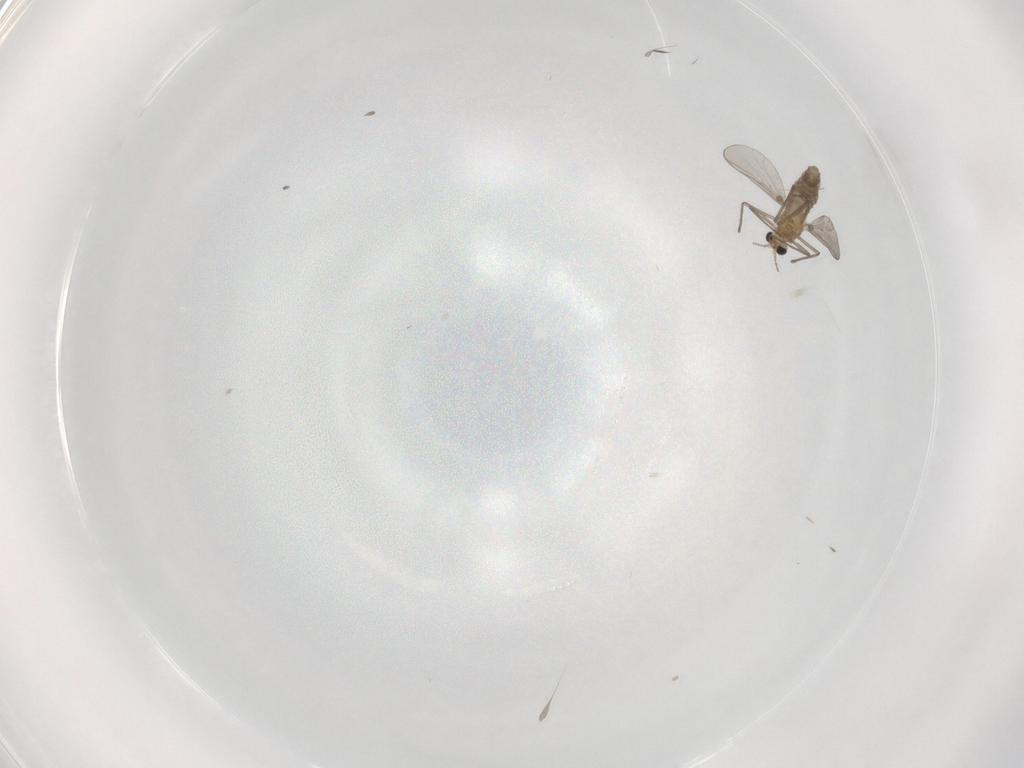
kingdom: Animalia
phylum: Arthropoda
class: Insecta
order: Diptera
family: Chironomidae
